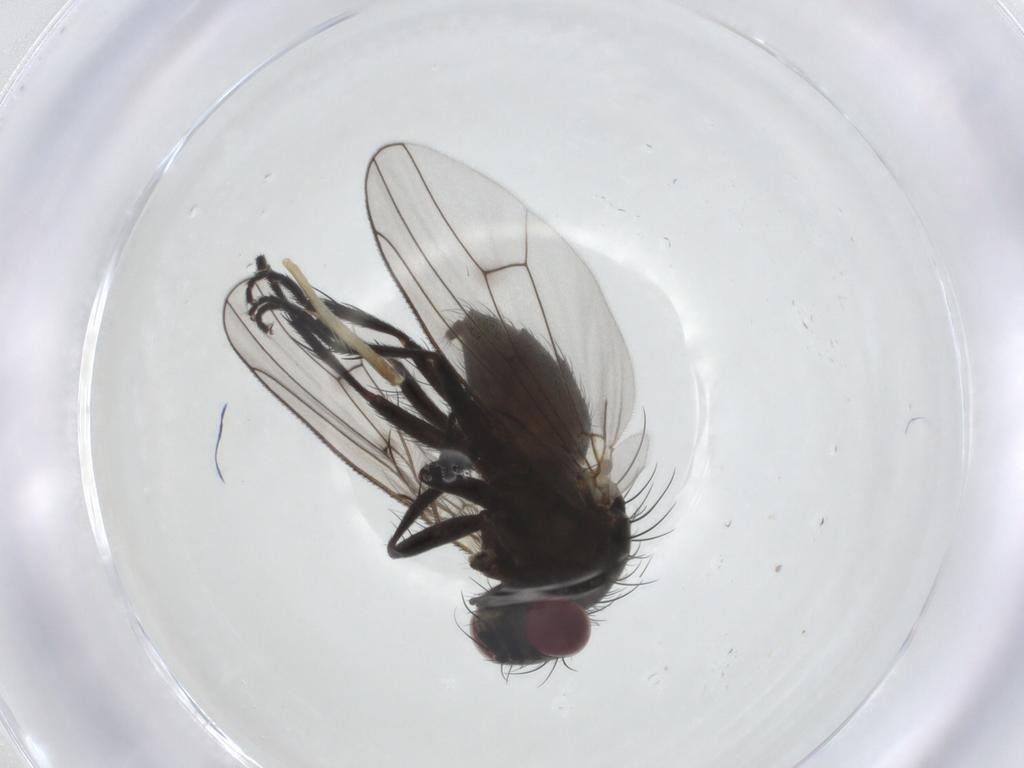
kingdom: Animalia
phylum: Arthropoda
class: Insecta
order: Diptera
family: Muscidae
